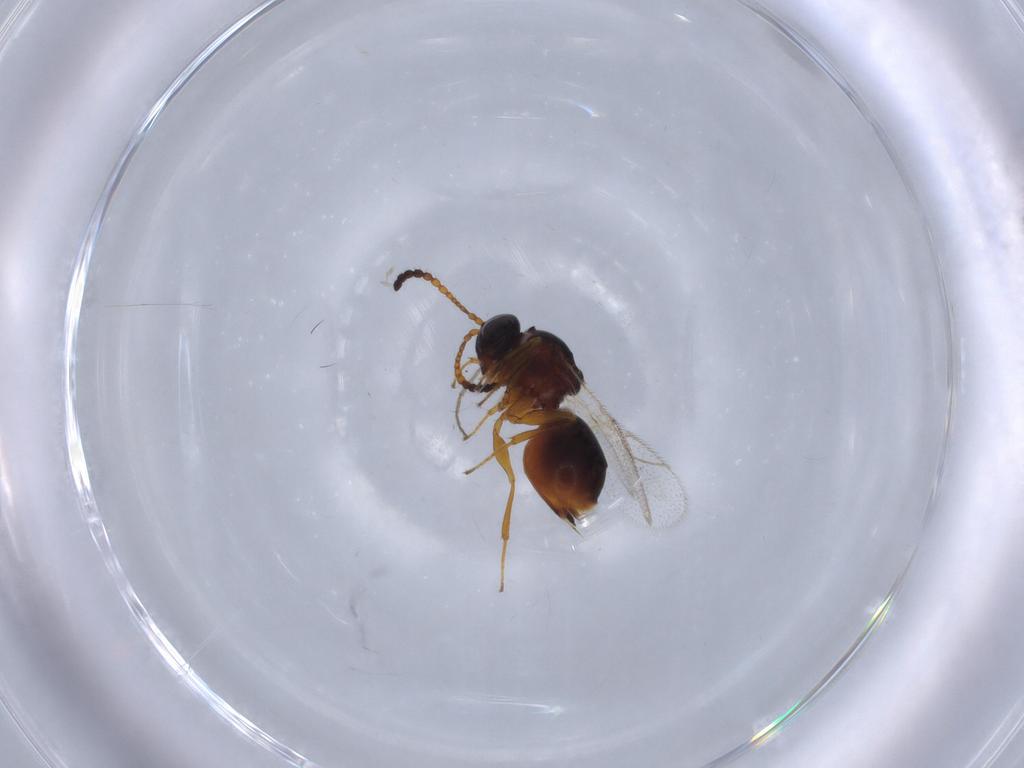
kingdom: Animalia
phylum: Arthropoda
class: Insecta
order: Hymenoptera
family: Figitidae
